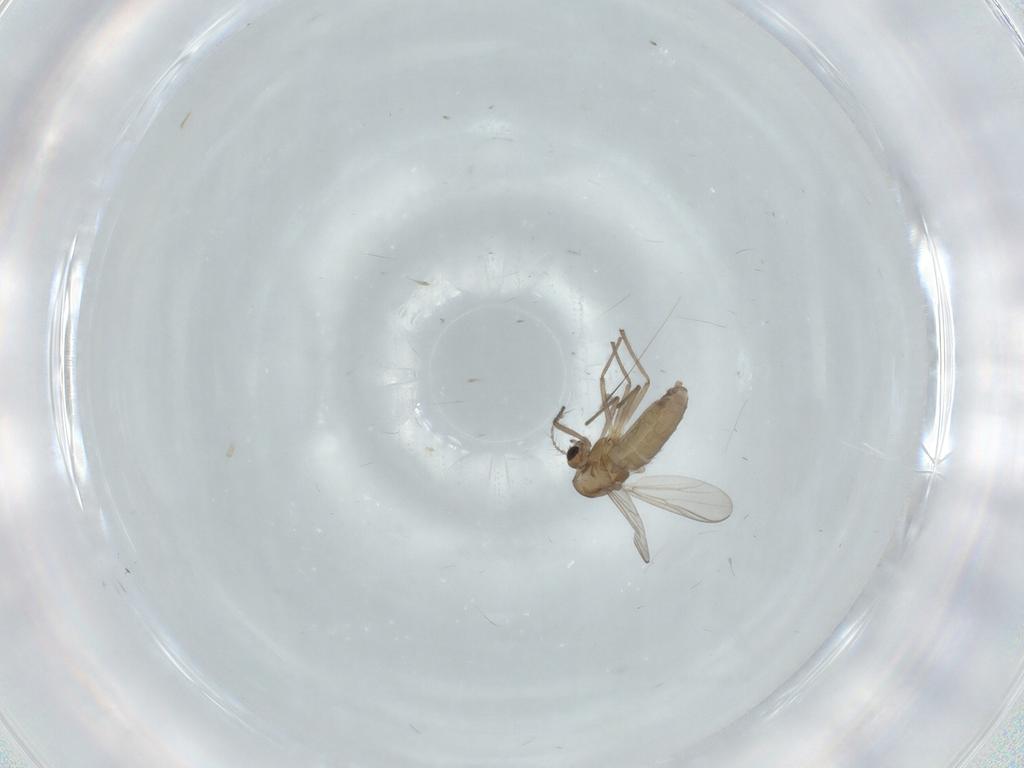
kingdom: Animalia
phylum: Arthropoda
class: Insecta
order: Diptera
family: Chironomidae
